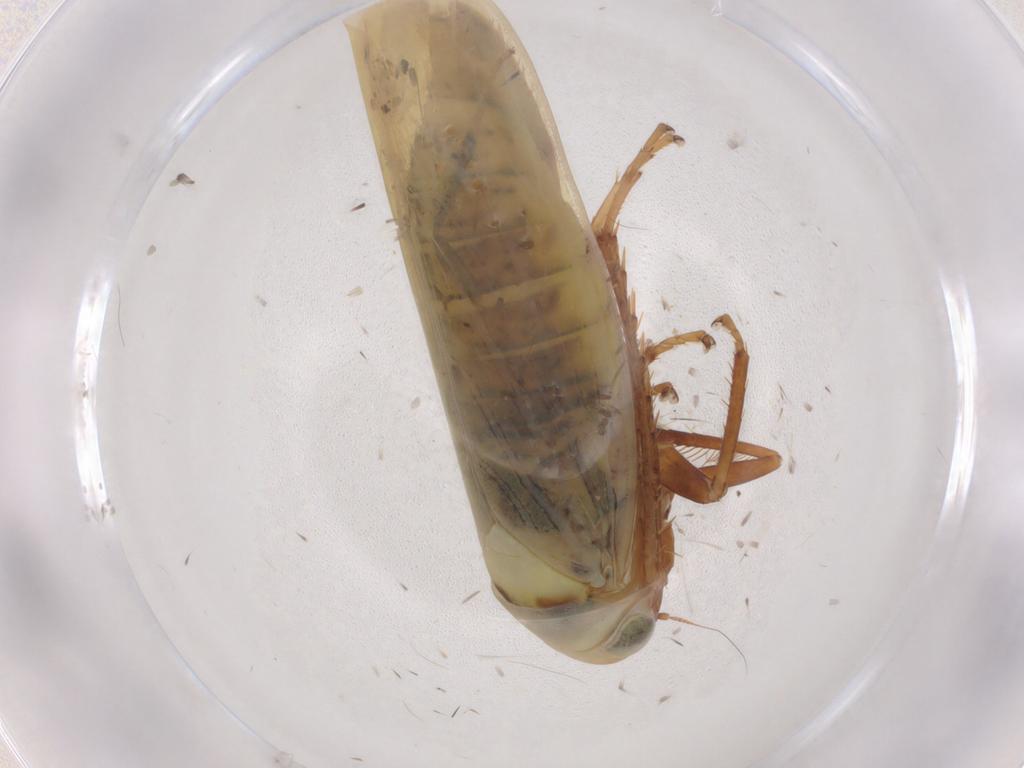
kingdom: Animalia
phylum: Arthropoda
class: Insecta
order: Hemiptera
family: Cicadellidae
